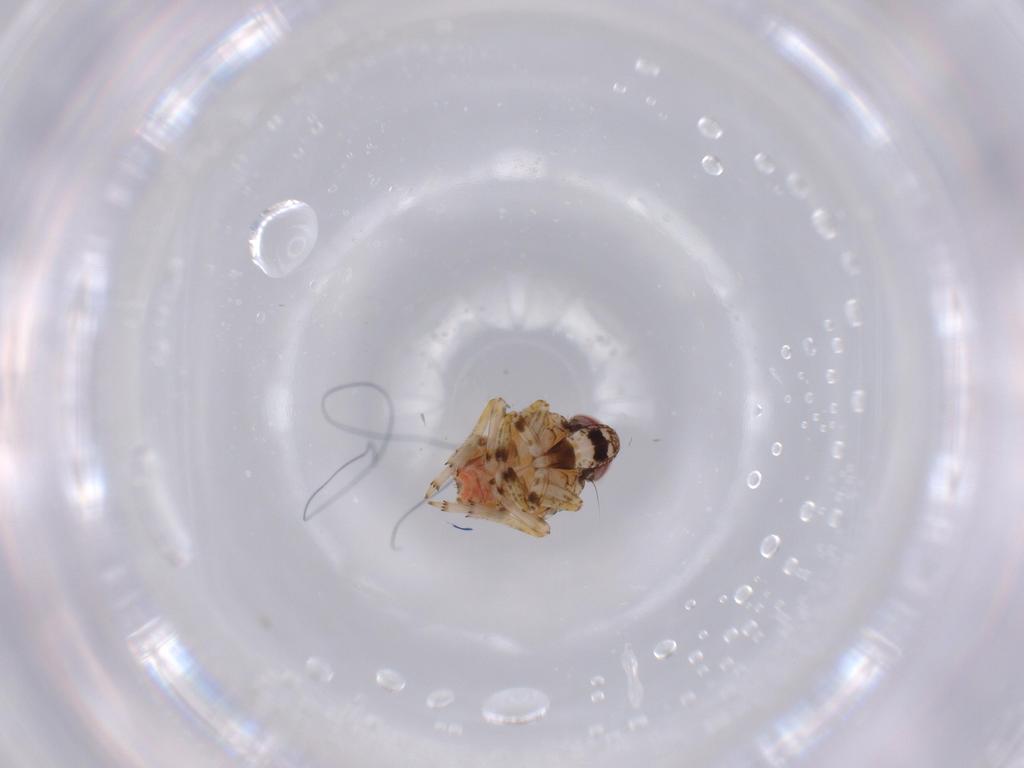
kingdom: Animalia
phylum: Arthropoda
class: Insecta
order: Hemiptera
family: Issidae
